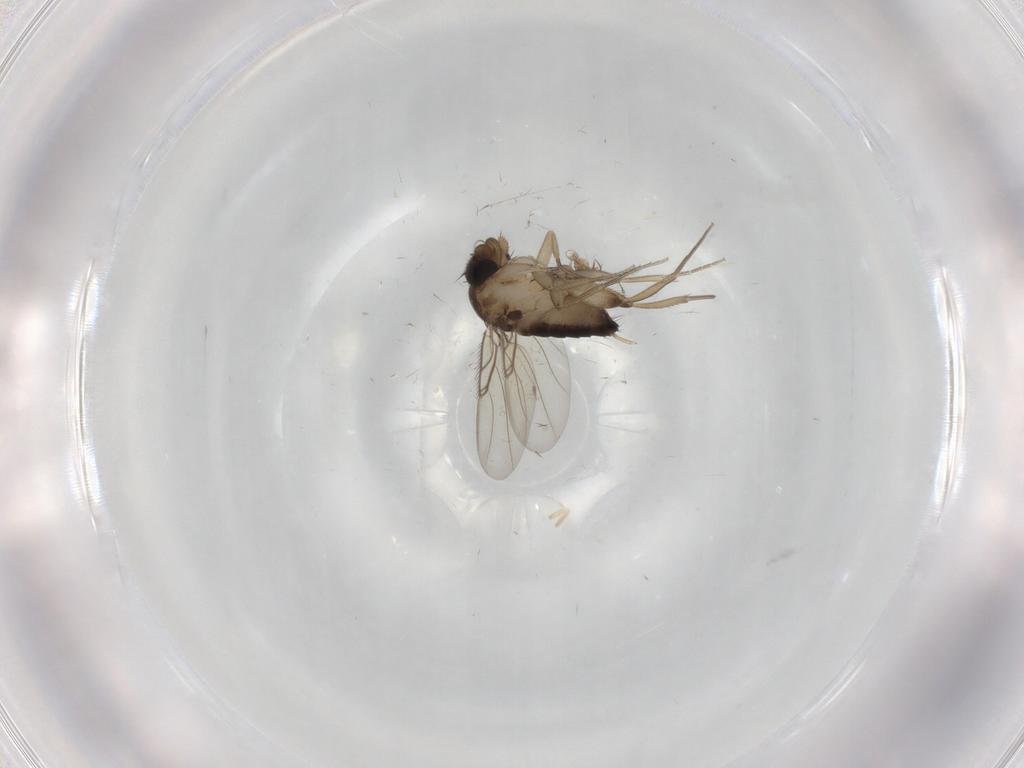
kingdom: Animalia
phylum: Arthropoda
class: Insecta
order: Diptera
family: Phoridae
